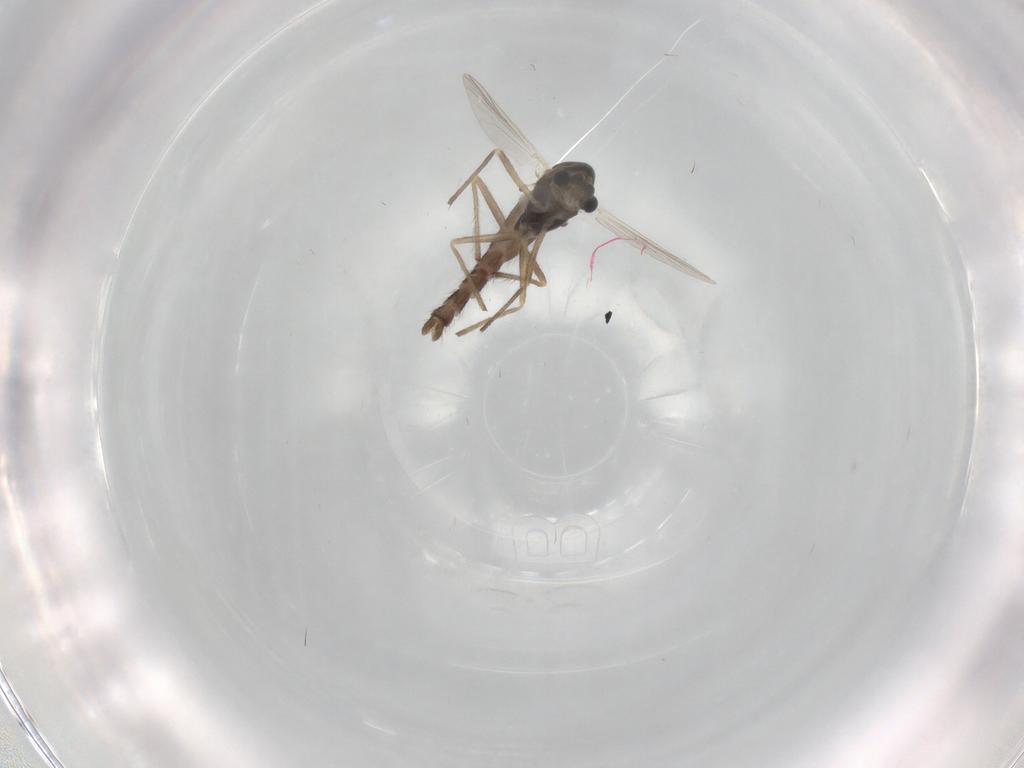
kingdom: Animalia
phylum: Arthropoda
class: Insecta
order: Diptera
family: Chironomidae
